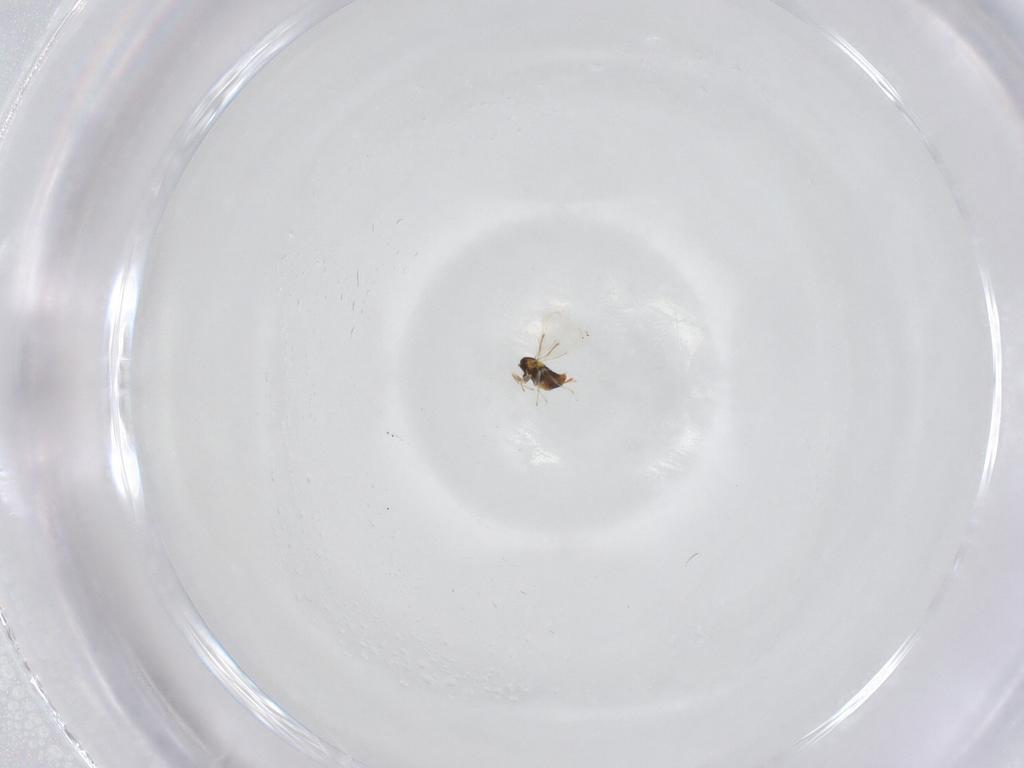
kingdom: Animalia
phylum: Arthropoda
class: Insecta
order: Hymenoptera
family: Aphelinidae
